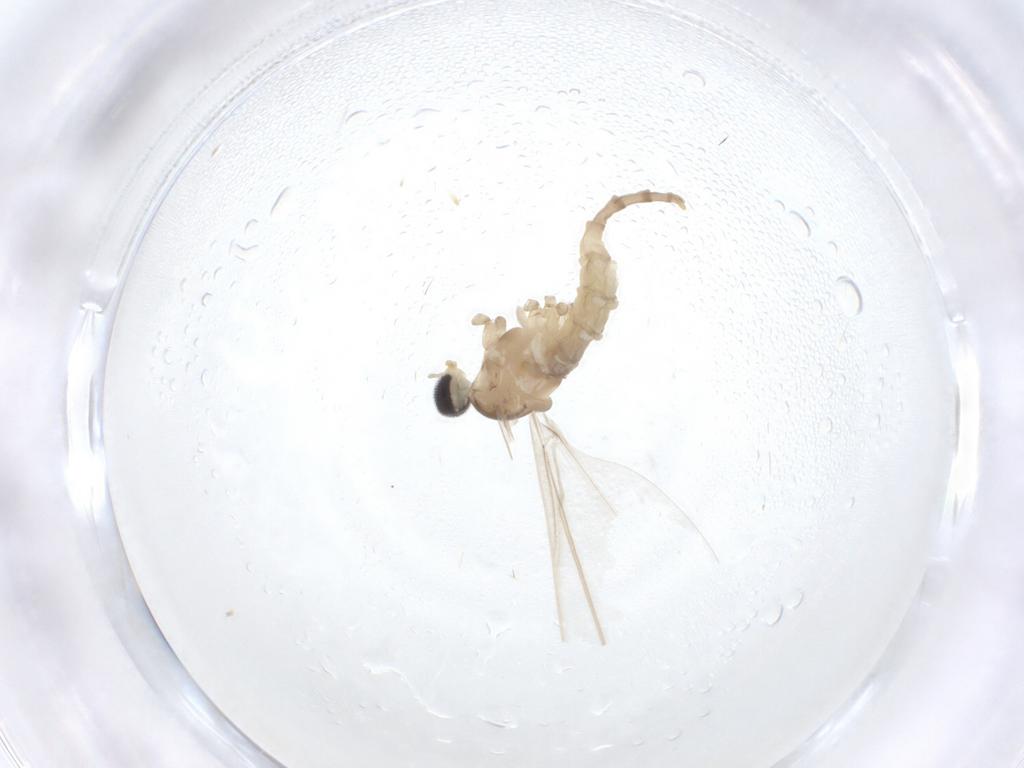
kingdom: Animalia
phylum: Arthropoda
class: Insecta
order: Diptera
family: Cecidomyiidae
